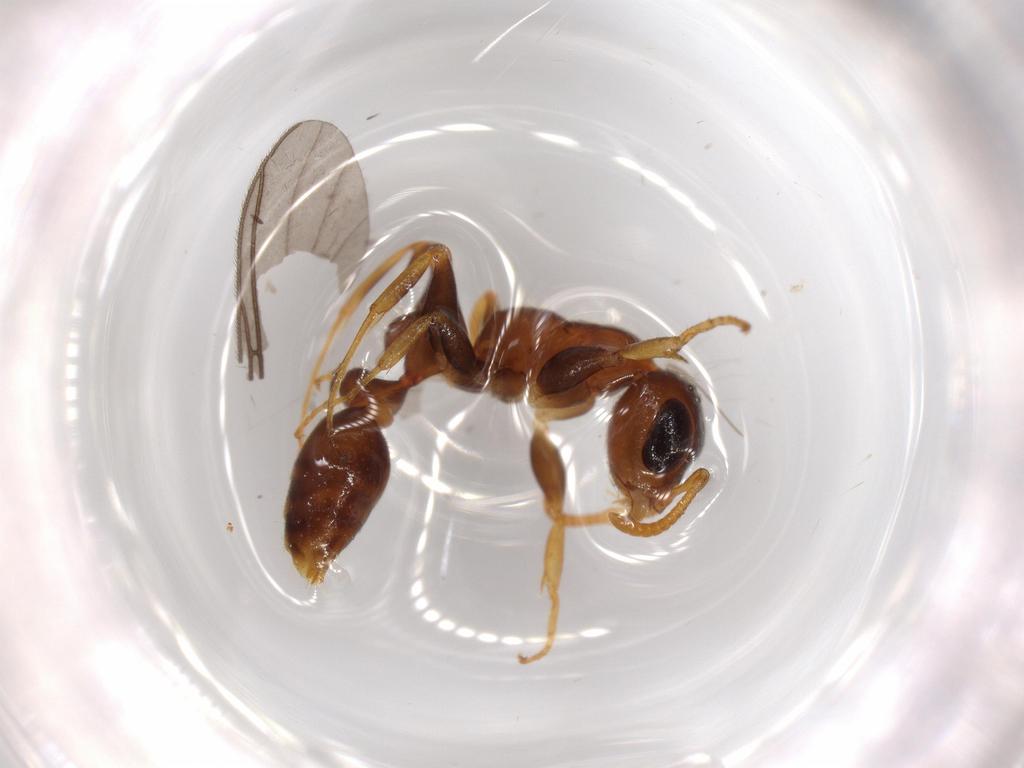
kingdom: Animalia
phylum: Arthropoda
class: Insecta
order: Hymenoptera
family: Formicidae
